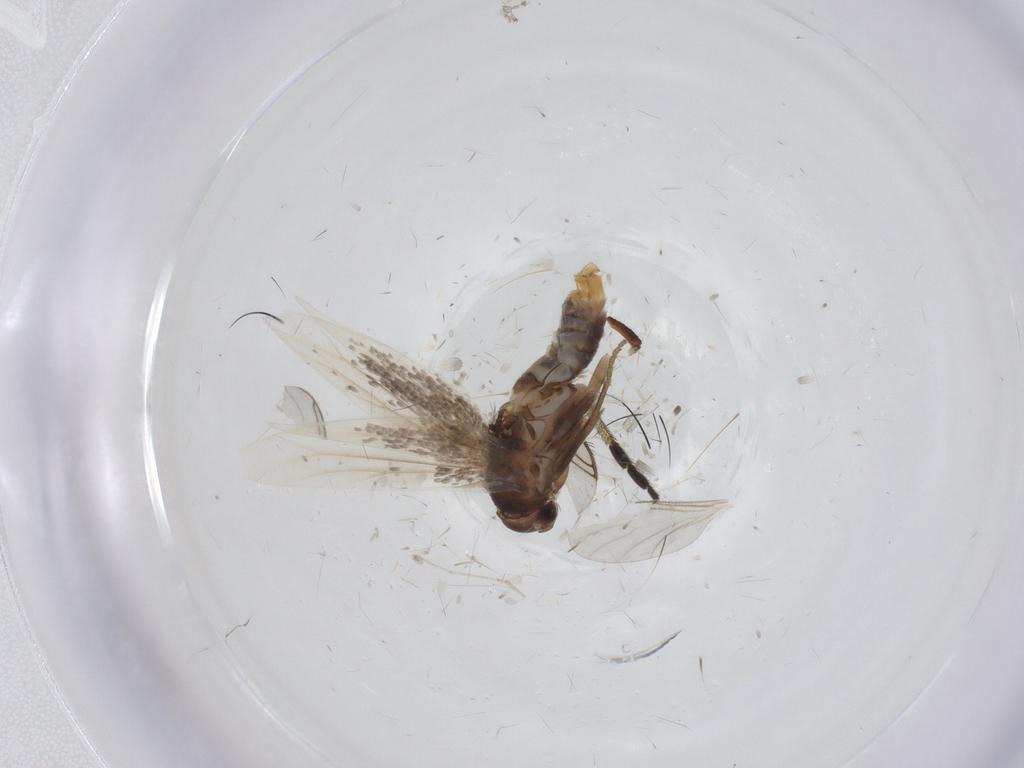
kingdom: Animalia
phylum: Arthropoda
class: Insecta
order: Lepidoptera
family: Elachistidae
